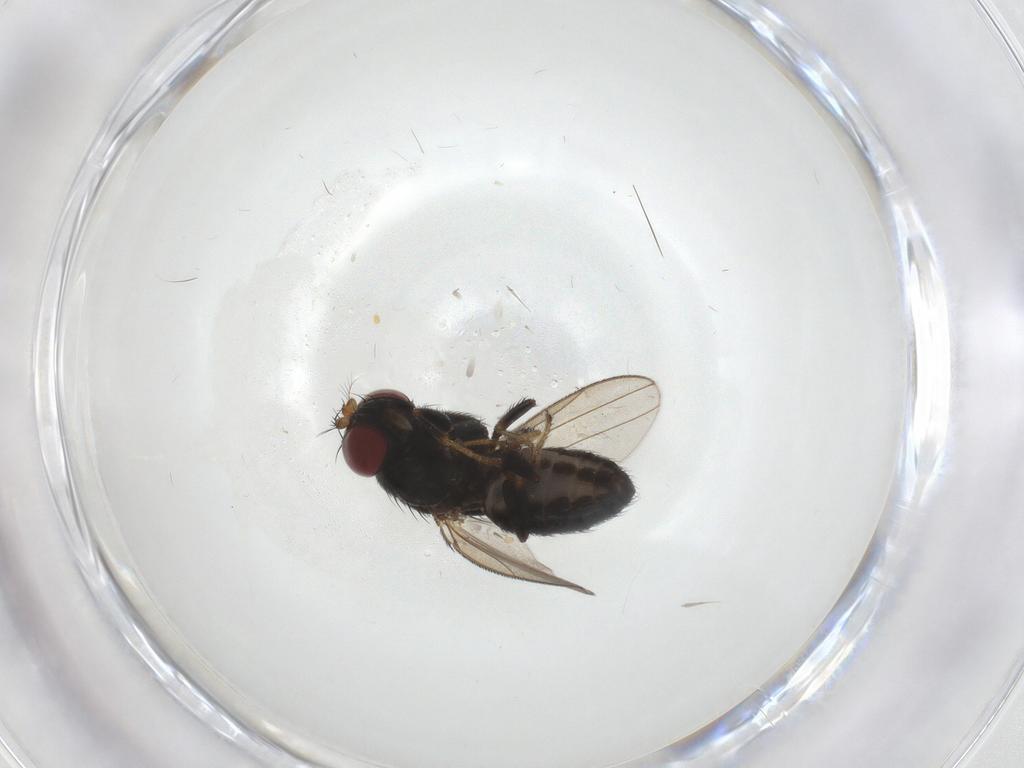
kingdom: Animalia
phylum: Arthropoda
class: Insecta
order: Diptera
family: Ephydridae
